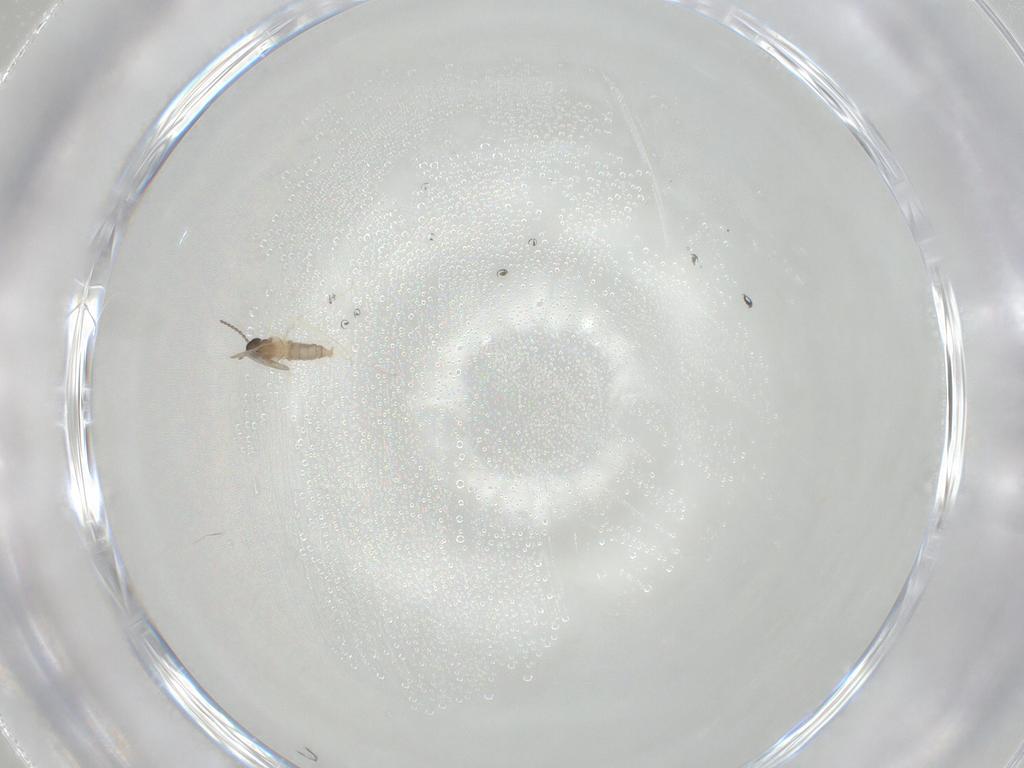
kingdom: Animalia
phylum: Arthropoda
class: Insecta
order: Diptera
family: Cecidomyiidae
